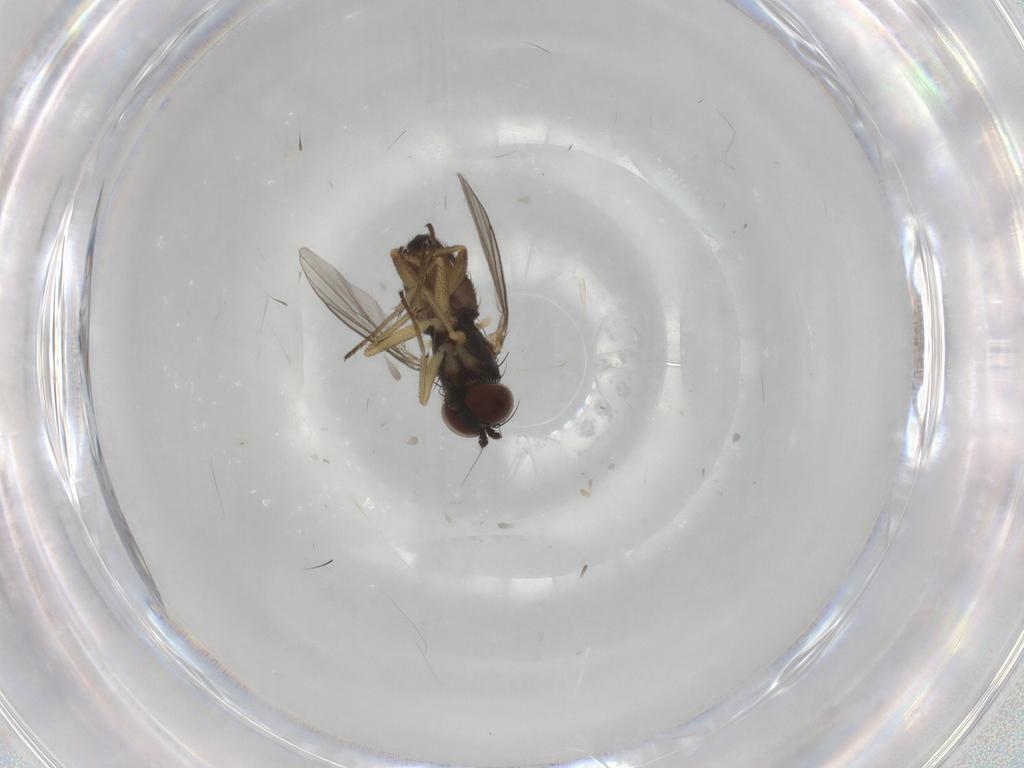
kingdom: Animalia
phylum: Arthropoda
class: Insecta
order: Diptera
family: Dolichopodidae
